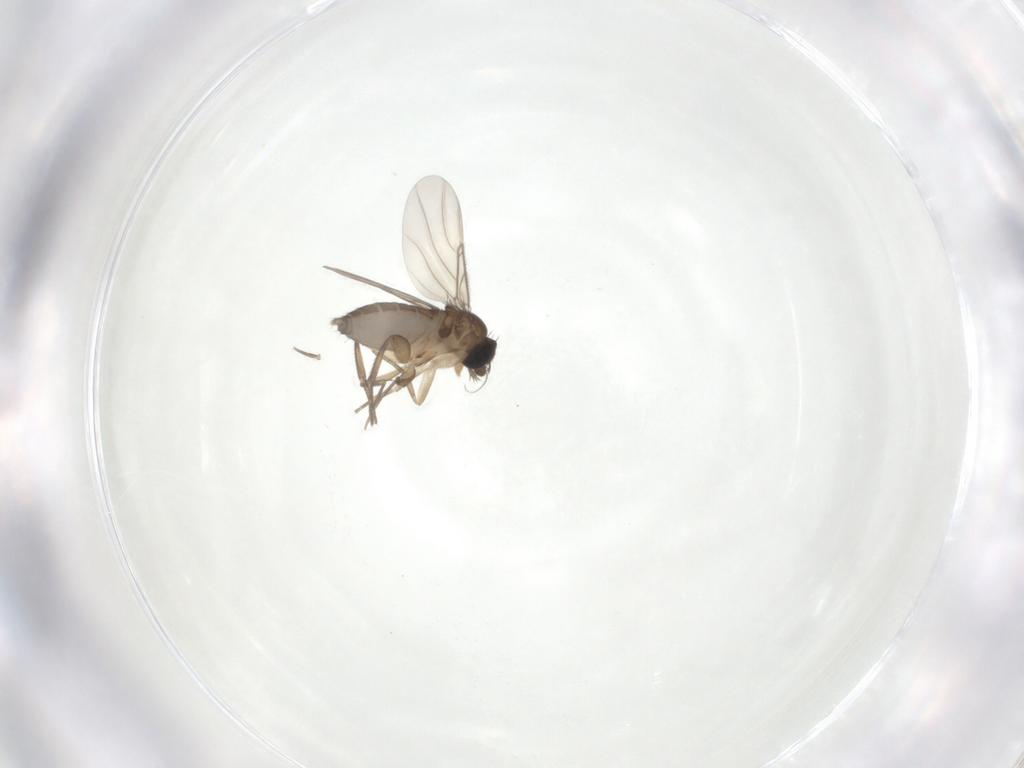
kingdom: Animalia
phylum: Arthropoda
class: Insecta
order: Diptera
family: Phoridae
